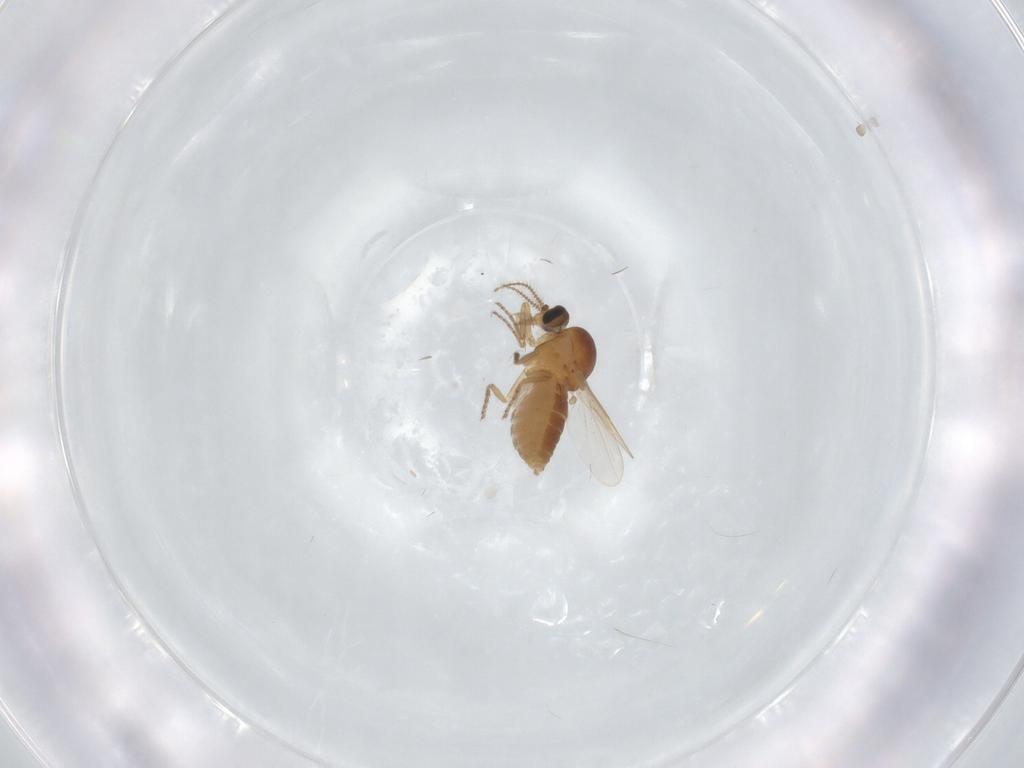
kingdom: Animalia
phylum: Arthropoda
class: Insecta
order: Diptera
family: Ceratopogonidae
